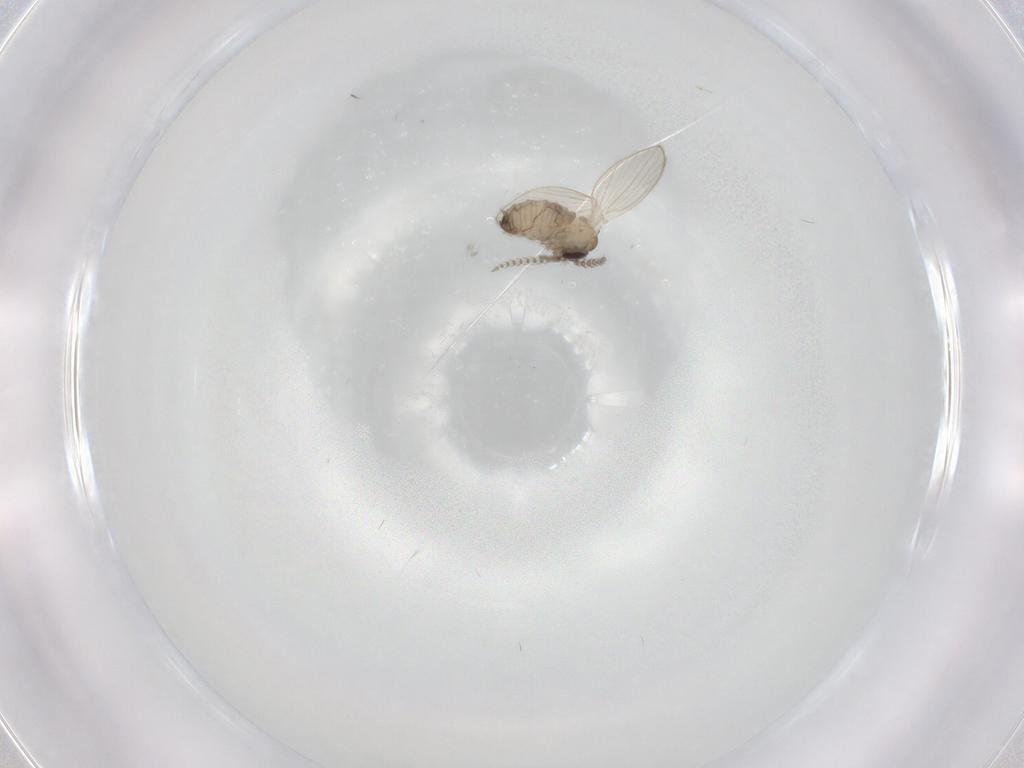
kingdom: Animalia
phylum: Arthropoda
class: Insecta
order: Diptera
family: Psychodidae
